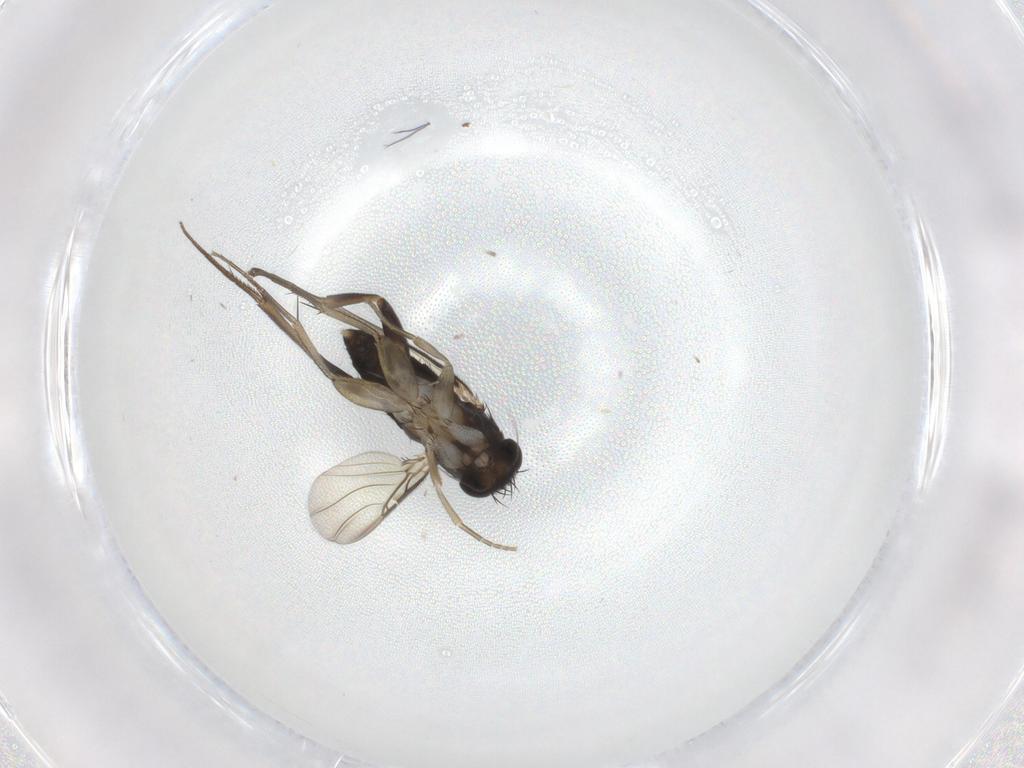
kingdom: Animalia
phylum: Arthropoda
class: Insecta
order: Diptera
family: Phoridae
